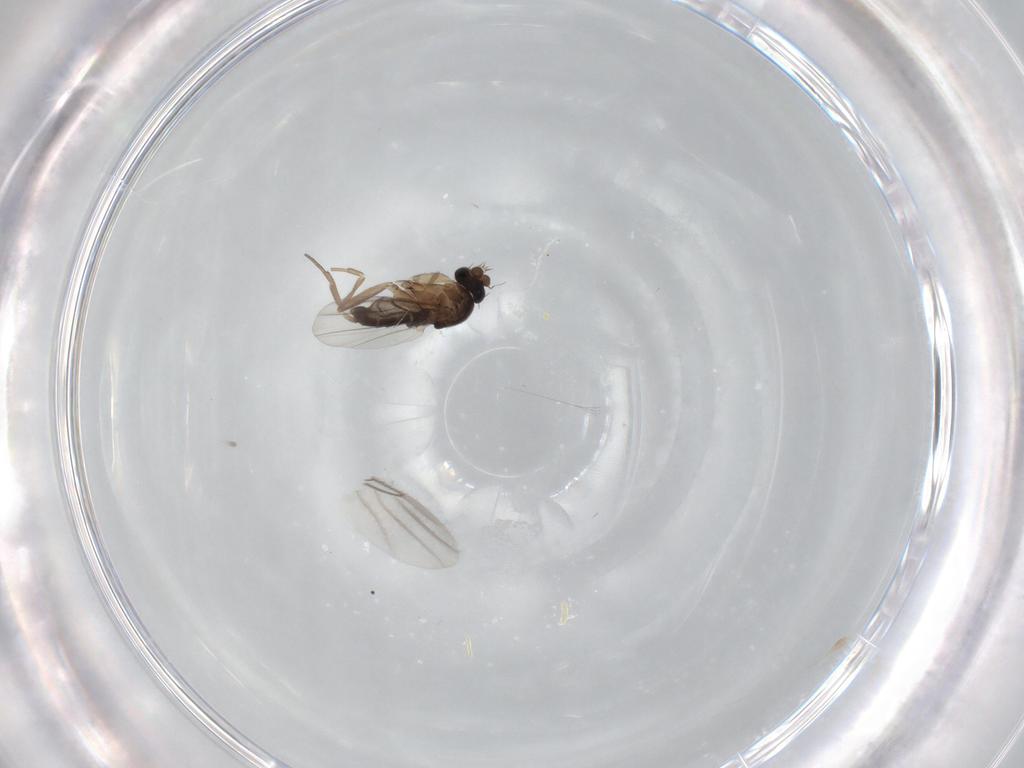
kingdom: Animalia
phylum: Arthropoda
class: Insecta
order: Diptera
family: Phoridae
